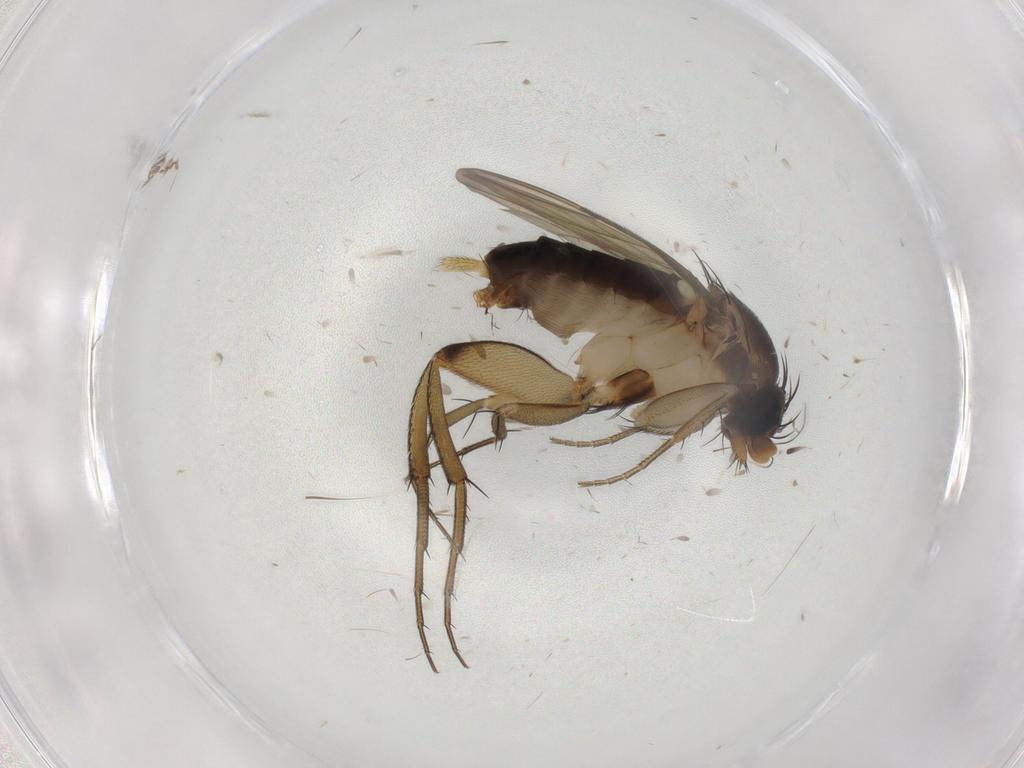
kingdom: Animalia
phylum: Arthropoda
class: Insecta
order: Diptera
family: Phoridae
